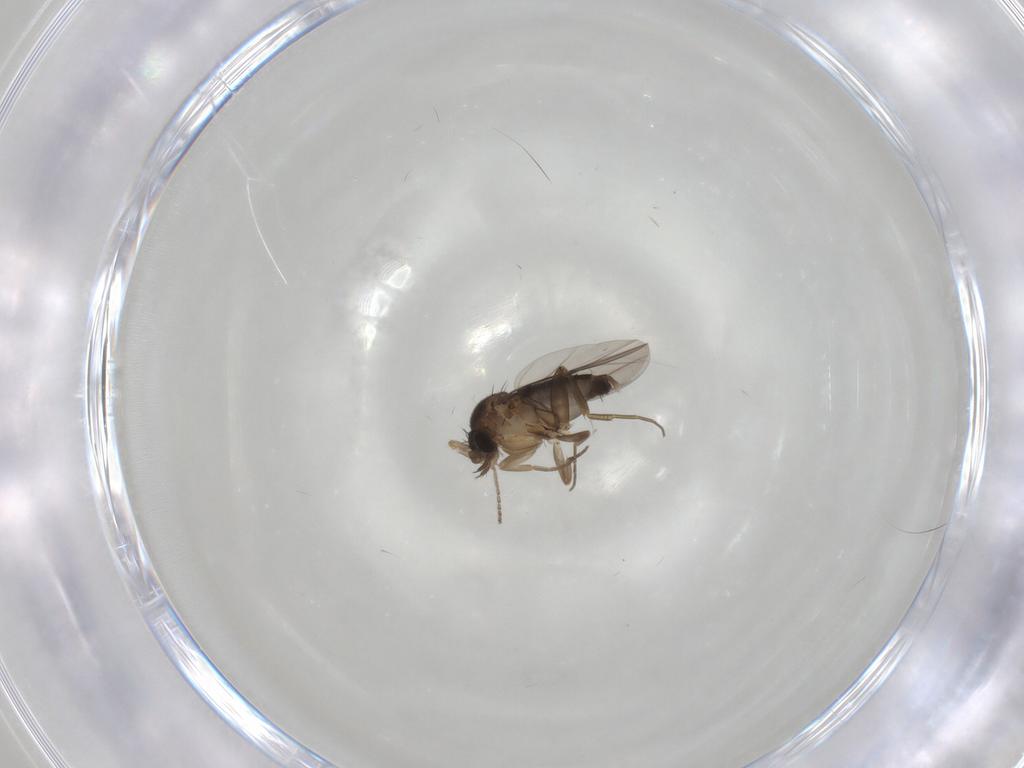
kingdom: Animalia
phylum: Arthropoda
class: Insecta
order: Diptera
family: Phoridae
